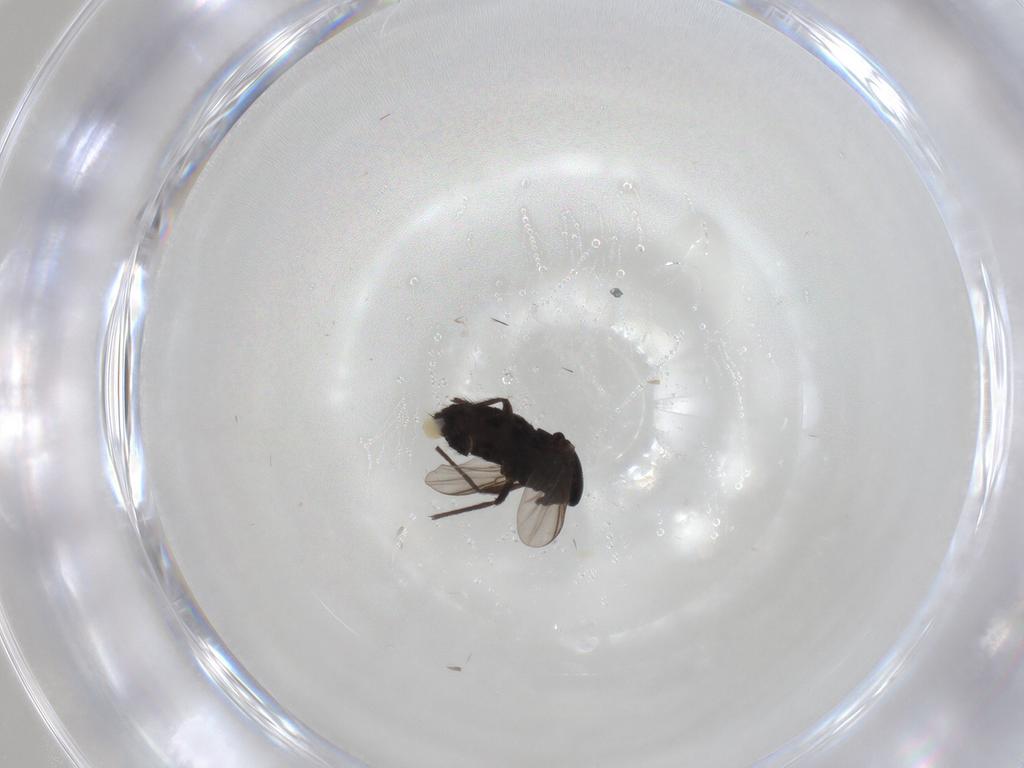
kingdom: Animalia
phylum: Arthropoda
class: Insecta
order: Diptera
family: Chironomidae
